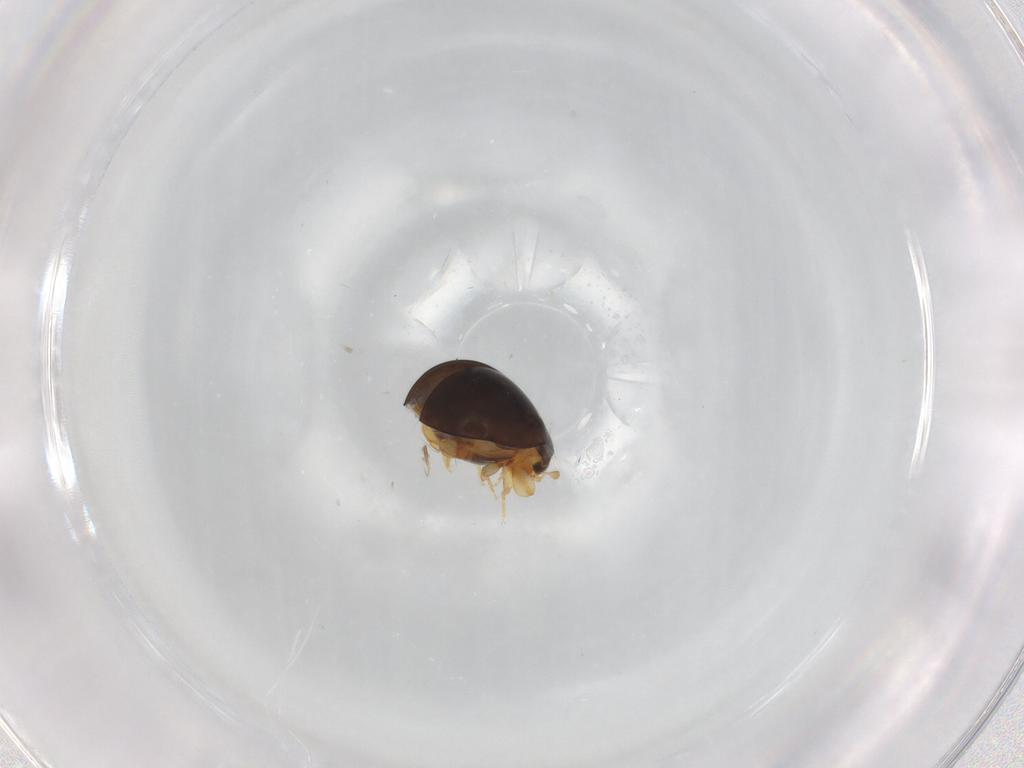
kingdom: Animalia
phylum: Arthropoda
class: Insecta
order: Coleoptera
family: Coccinellidae
